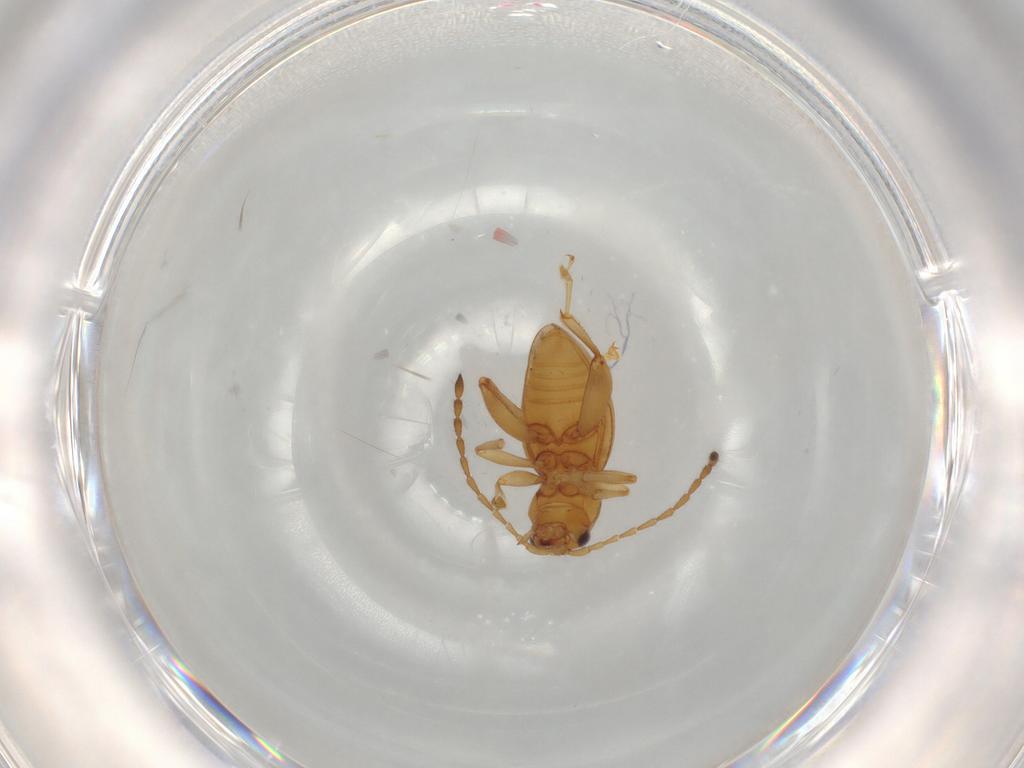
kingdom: Animalia
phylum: Arthropoda
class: Insecta
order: Coleoptera
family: Chrysomelidae
